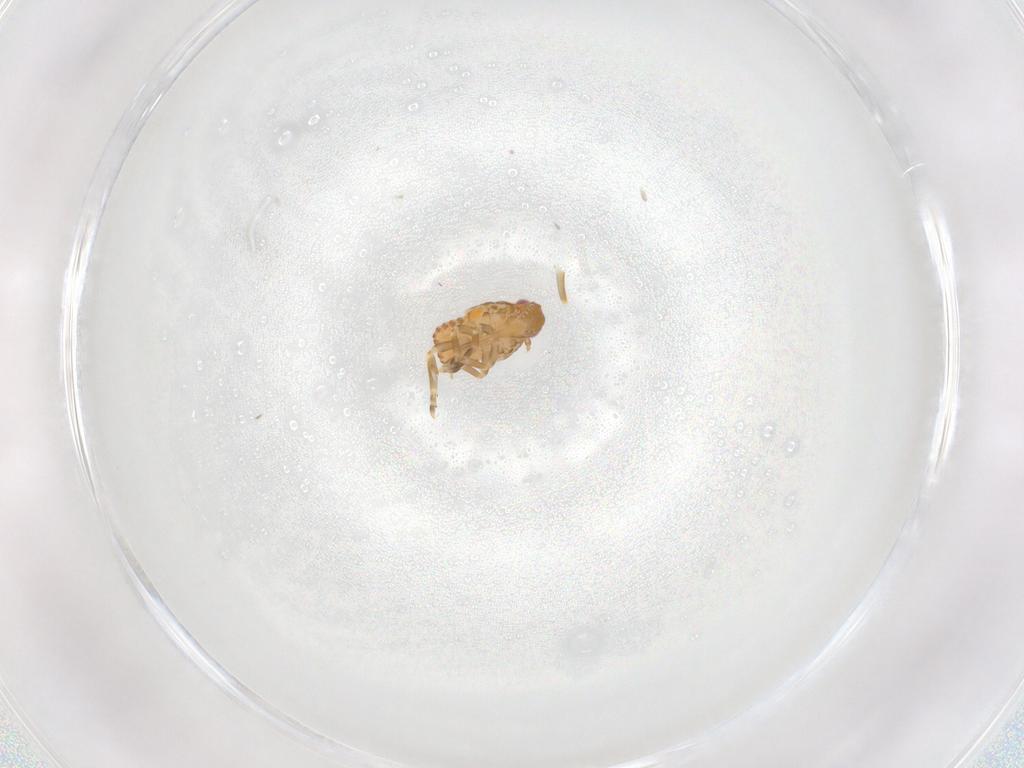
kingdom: Animalia
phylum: Arthropoda
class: Insecta
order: Hemiptera
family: Flatidae
